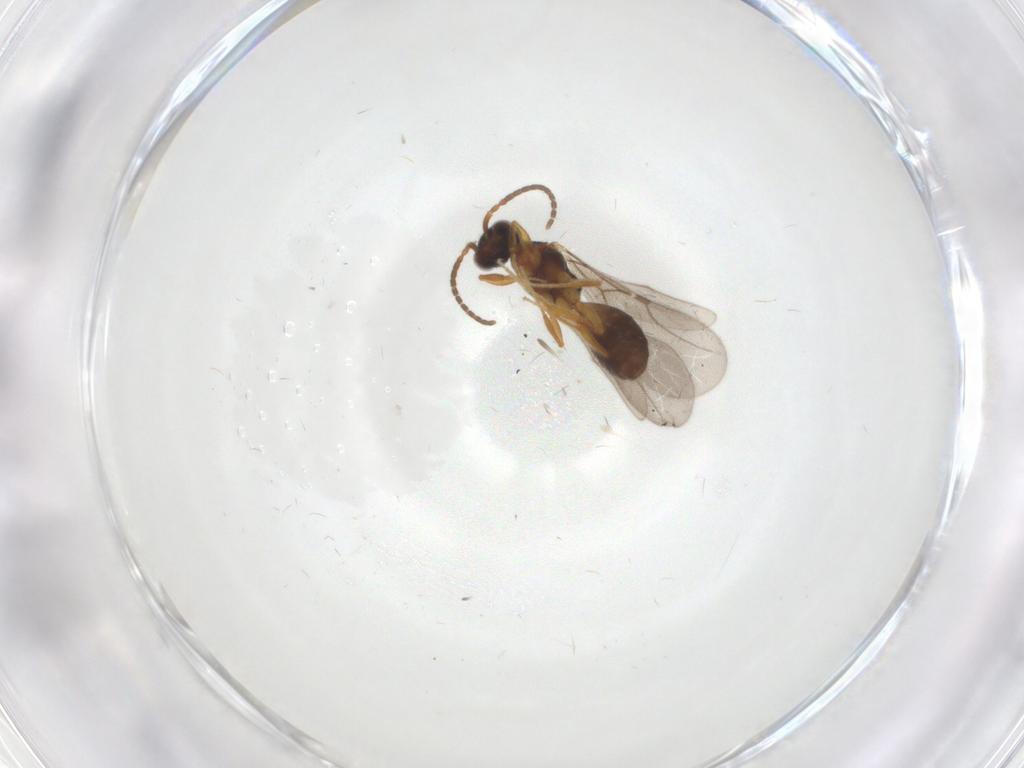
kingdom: Animalia
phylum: Arthropoda
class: Insecta
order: Hymenoptera
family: Bethylidae
